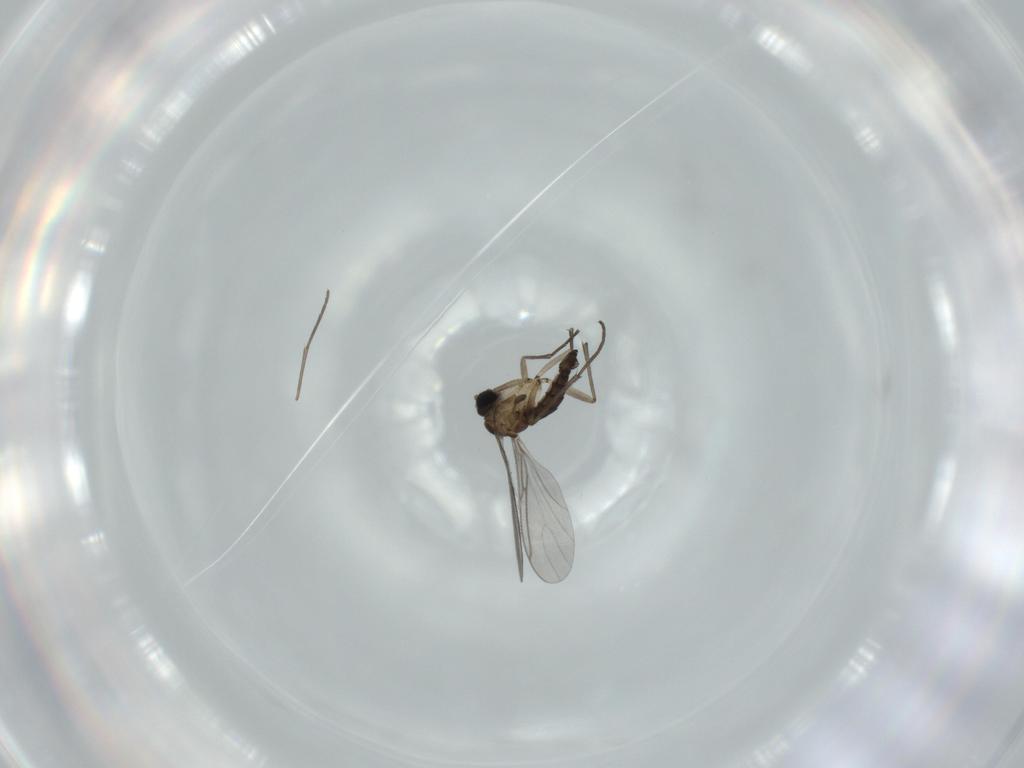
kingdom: Animalia
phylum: Arthropoda
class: Insecta
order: Diptera
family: Sciaridae
